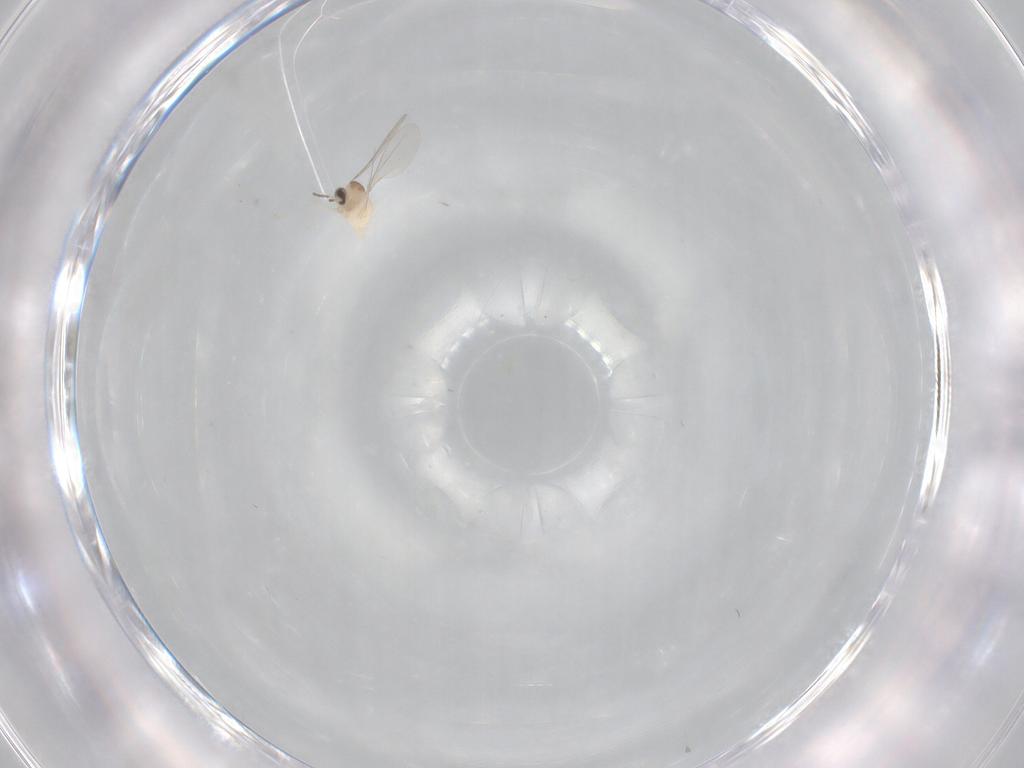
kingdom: Animalia
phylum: Arthropoda
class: Insecta
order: Diptera
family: Cecidomyiidae
